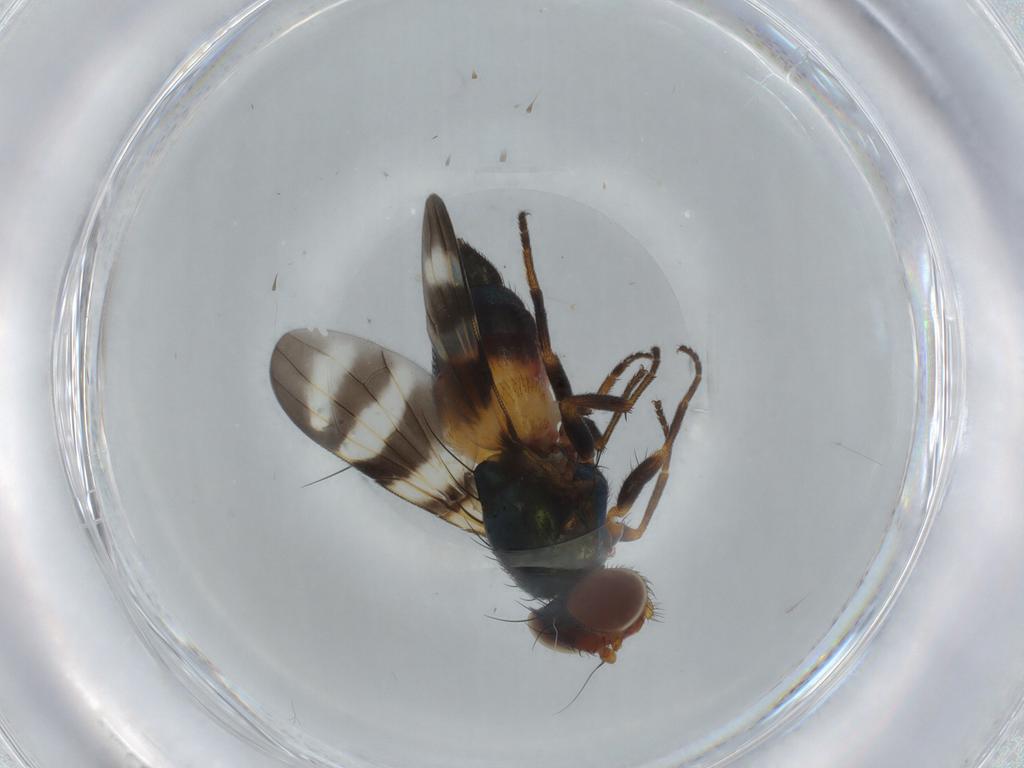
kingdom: Animalia
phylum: Arthropoda
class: Insecta
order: Diptera
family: Ulidiidae
